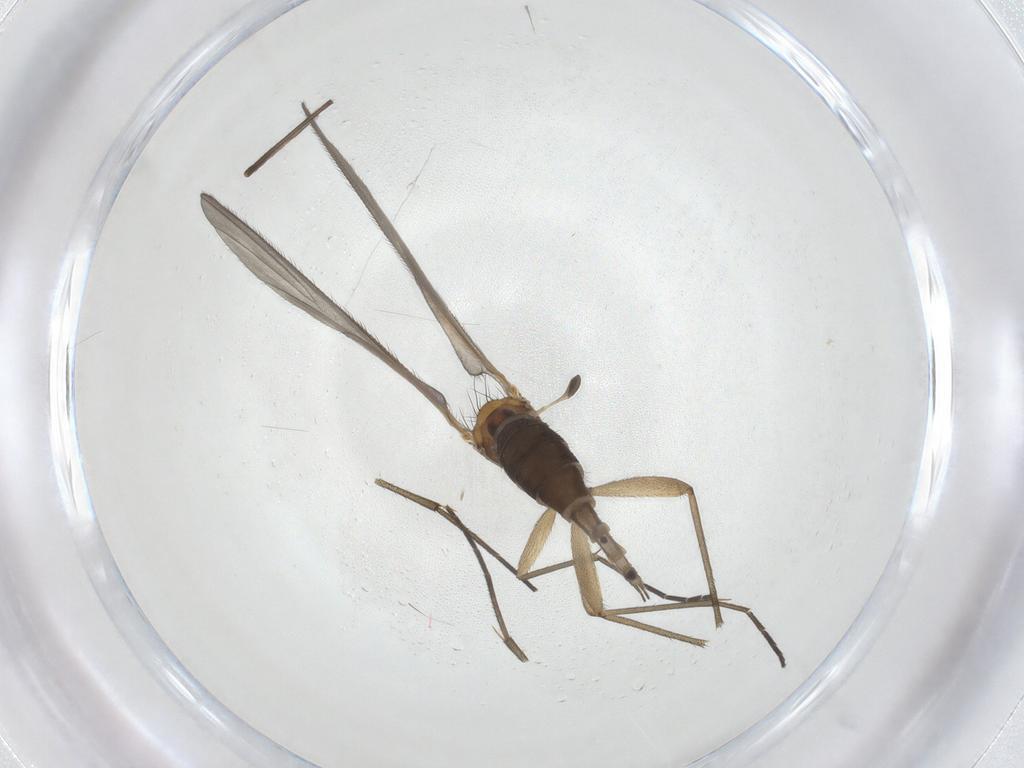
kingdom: Animalia
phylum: Arthropoda
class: Insecta
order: Diptera
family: Sciaridae
